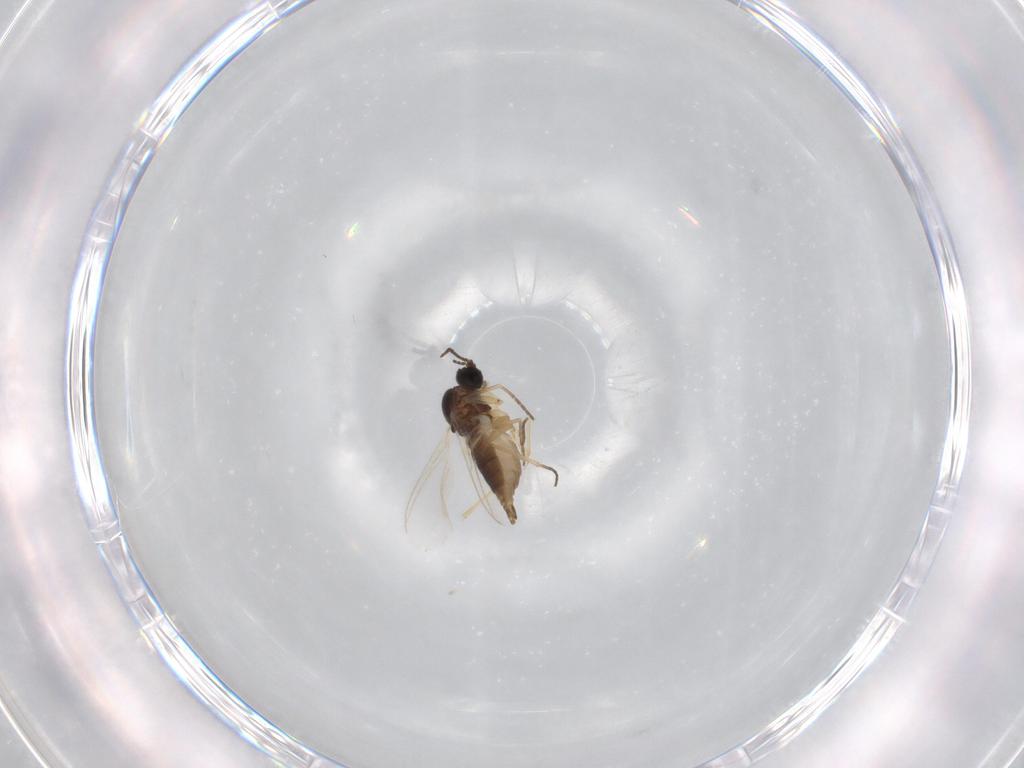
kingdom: Animalia
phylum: Arthropoda
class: Insecta
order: Diptera
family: Sciaridae
